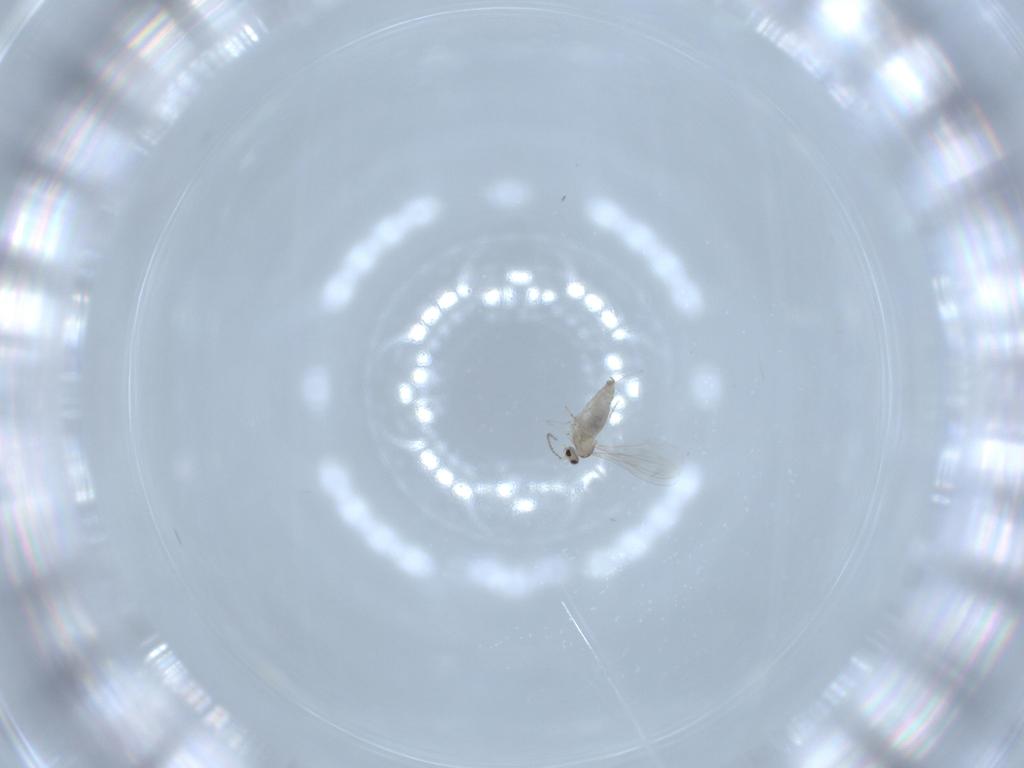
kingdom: Animalia
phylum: Arthropoda
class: Insecta
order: Diptera
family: Cecidomyiidae
